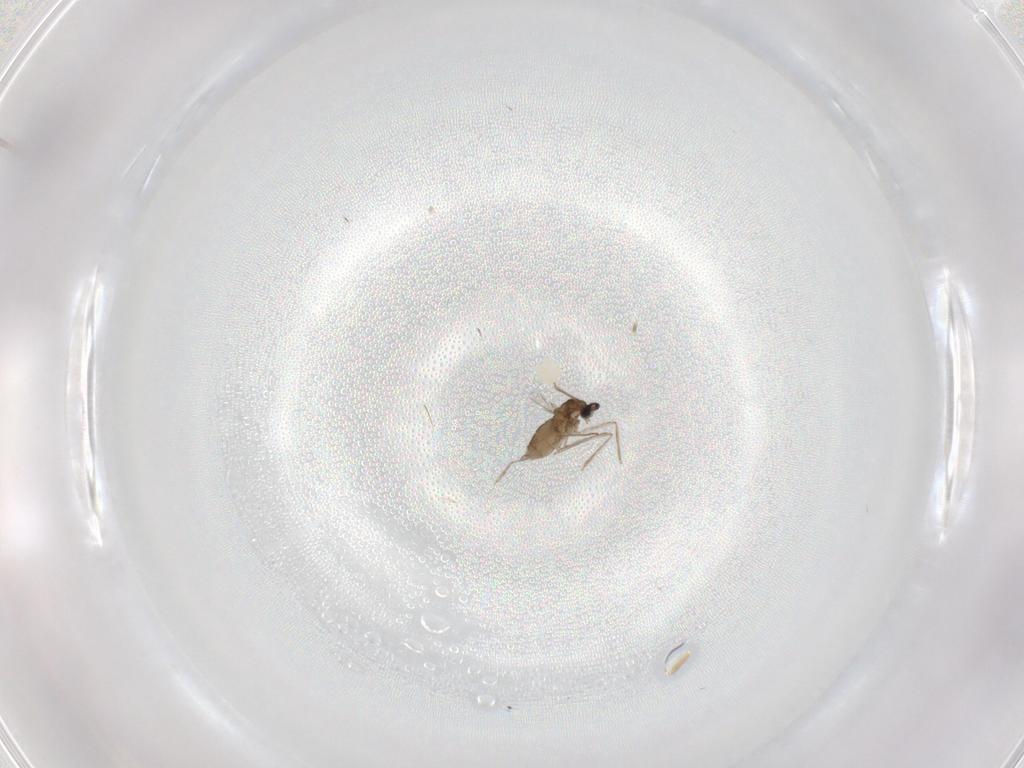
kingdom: Animalia
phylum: Arthropoda
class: Insecta
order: Diptera
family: Cecidomyiidae
